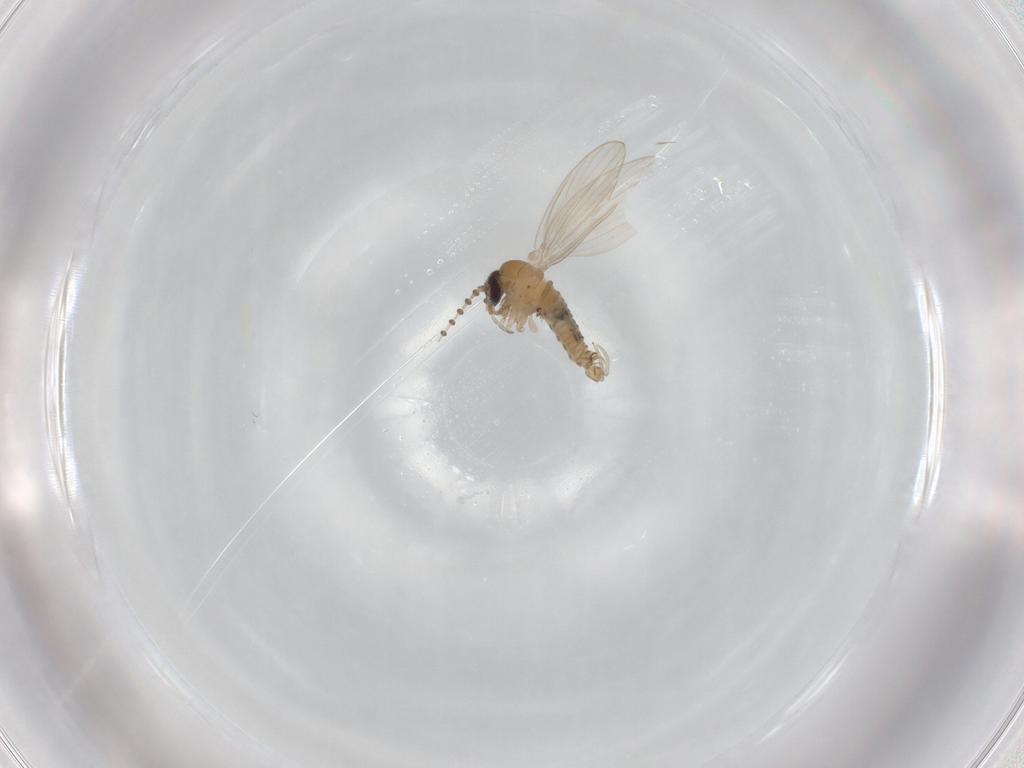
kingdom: Animalia
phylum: Arthropoda
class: Insecta
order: Diptera
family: Psychodidae
